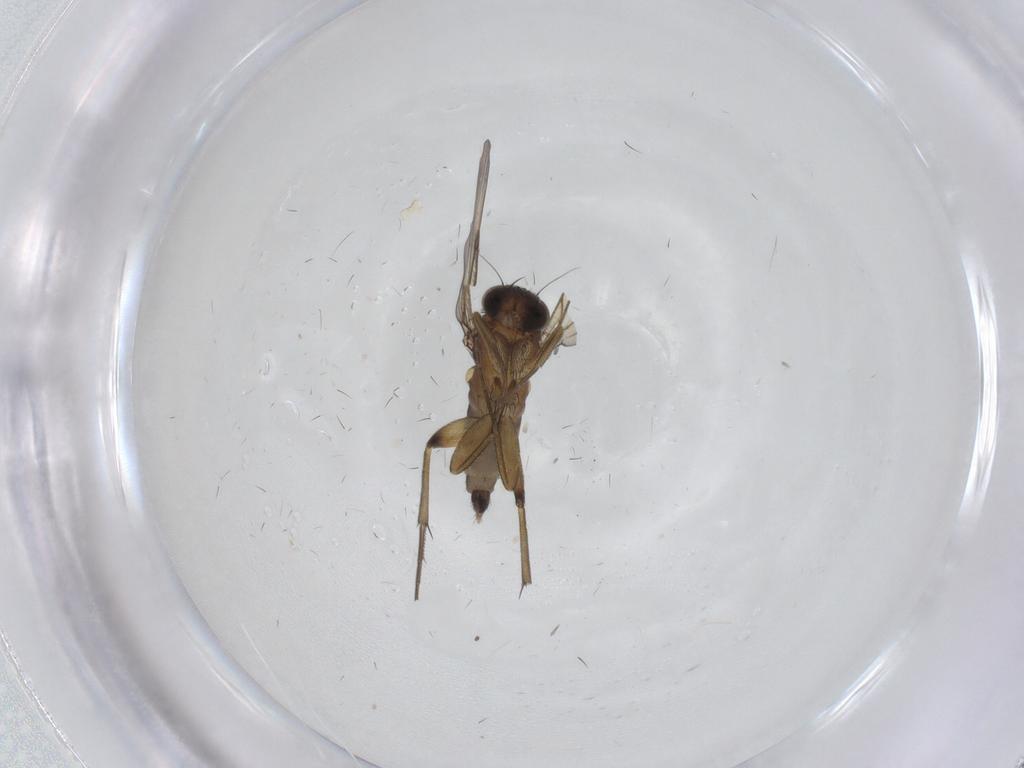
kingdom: Animalia
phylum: Arthropoda
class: Insecta
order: Diptera
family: Phoridae
